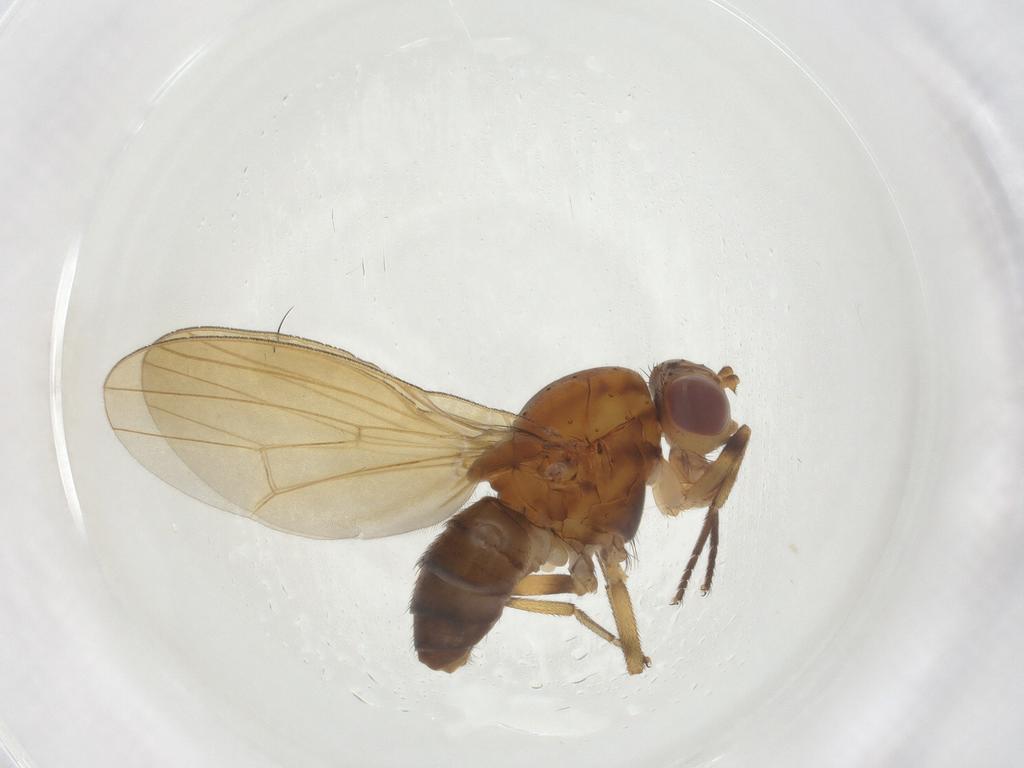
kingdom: Animalia
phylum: Arthropoda
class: Insecta
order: Diptera
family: Lauxaniidae
